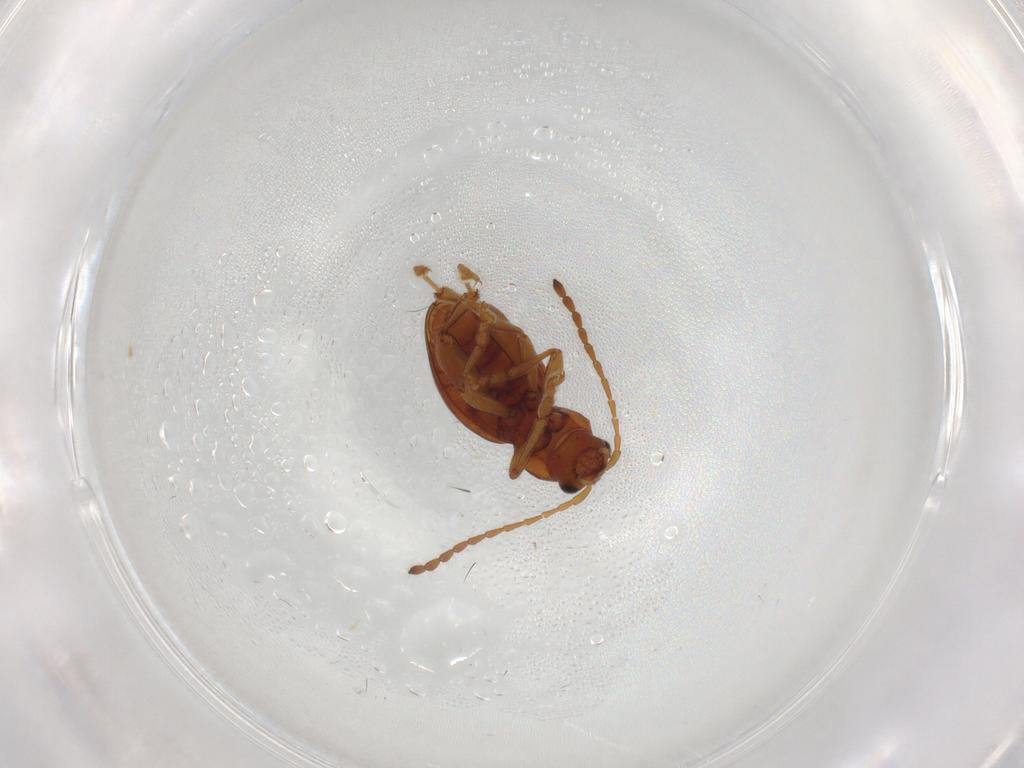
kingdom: Animalia
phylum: Arthropoda
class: Insecta
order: Coleoptera
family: Chrysomelidae
